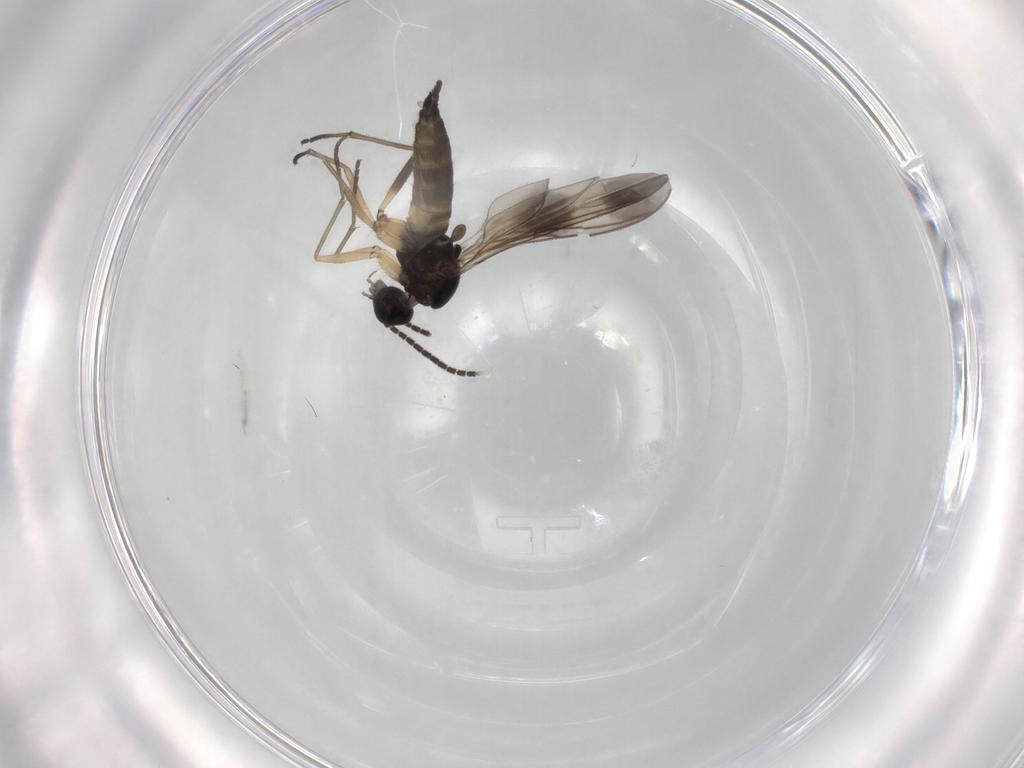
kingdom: Animalia
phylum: Arthropoda
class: Insecta
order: Diptera
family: Sciaridae
